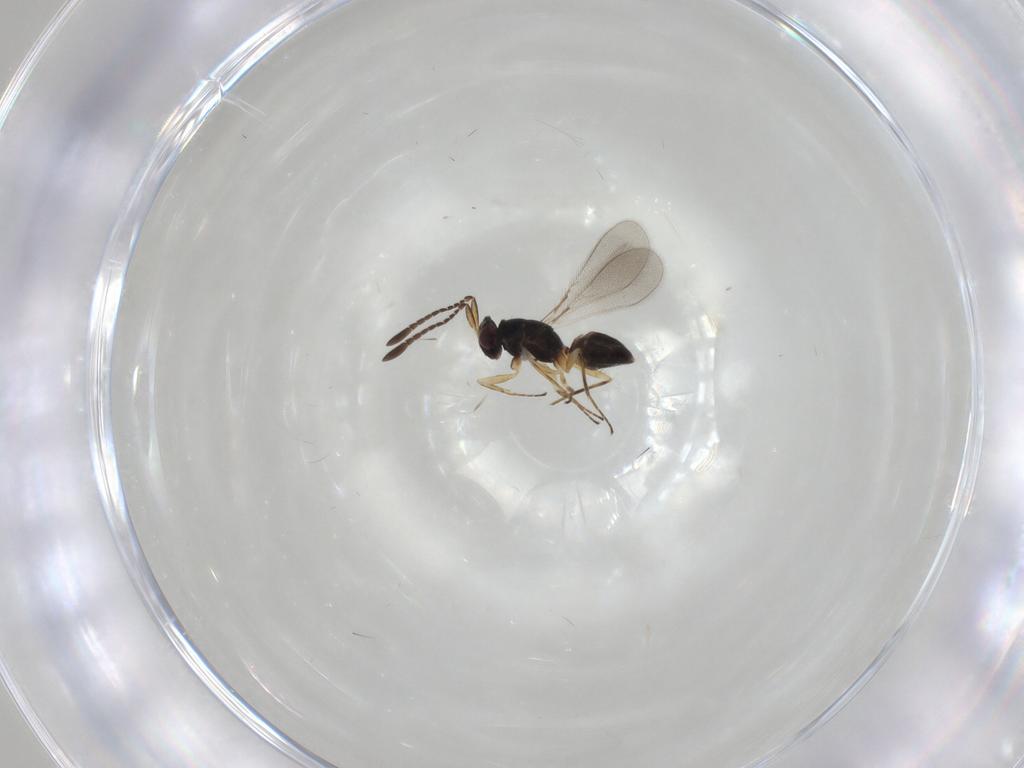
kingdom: Animalia
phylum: Arthropoda
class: Insecta
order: Hymenoptera
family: Mymaridae
